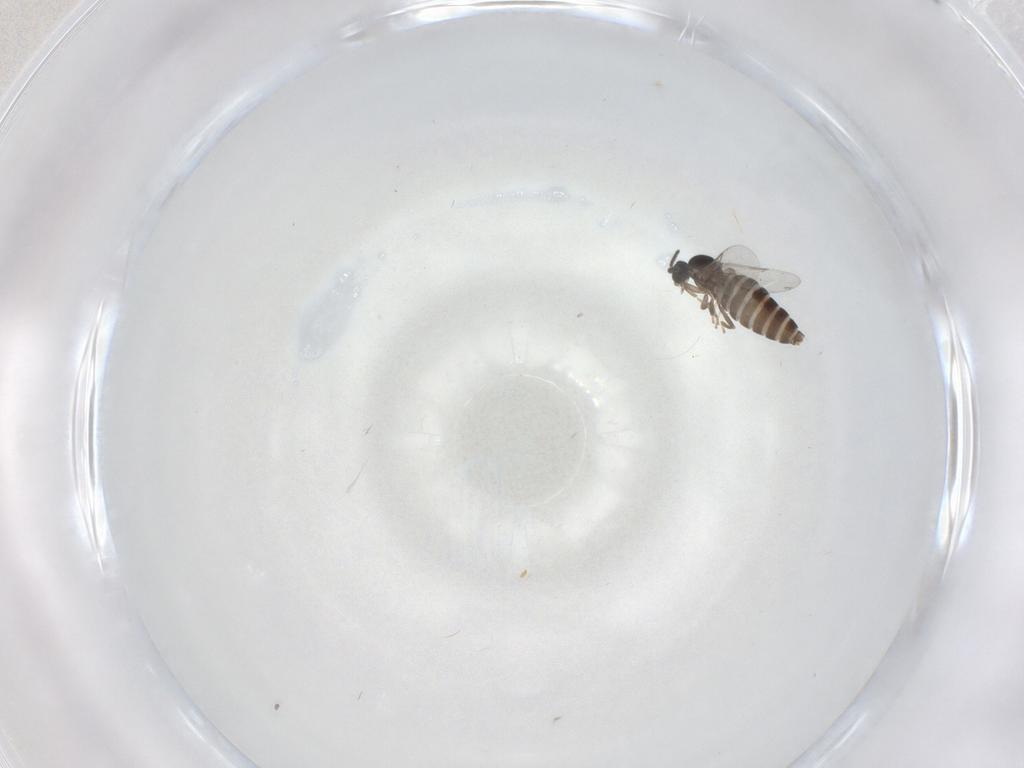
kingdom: Animalia
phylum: Arthropoda
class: Insecta
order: Diptera
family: Scatopsidae
